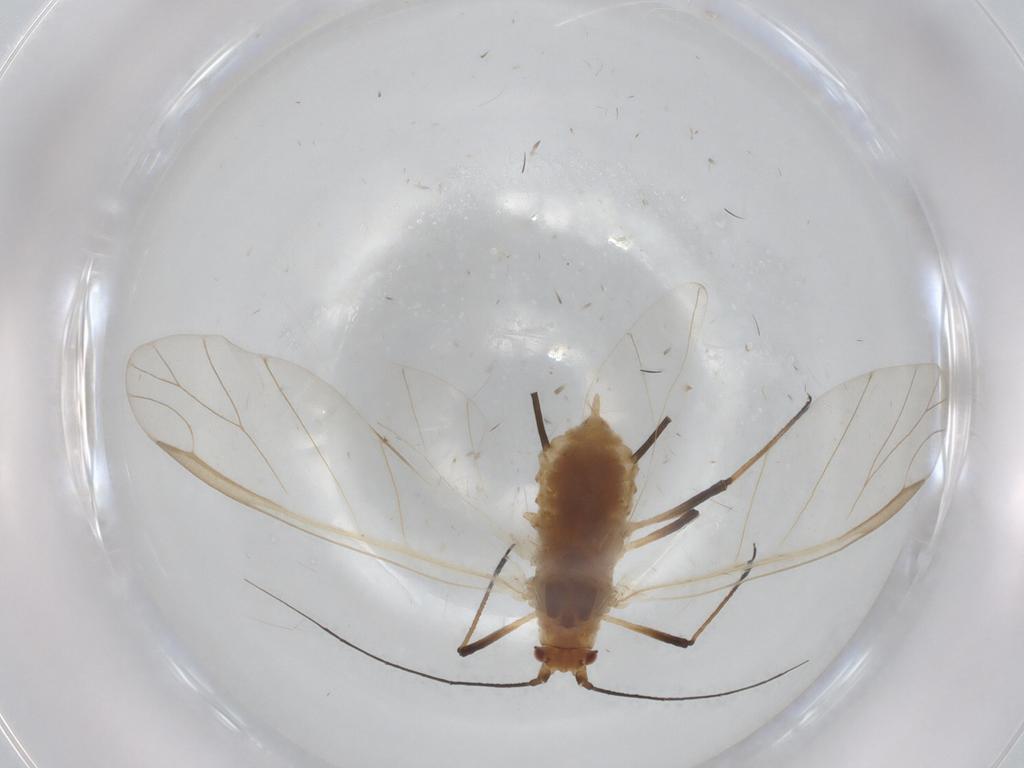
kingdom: Animalia
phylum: Arthropoda
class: Insecta
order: Hemiptera
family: Aphididae
